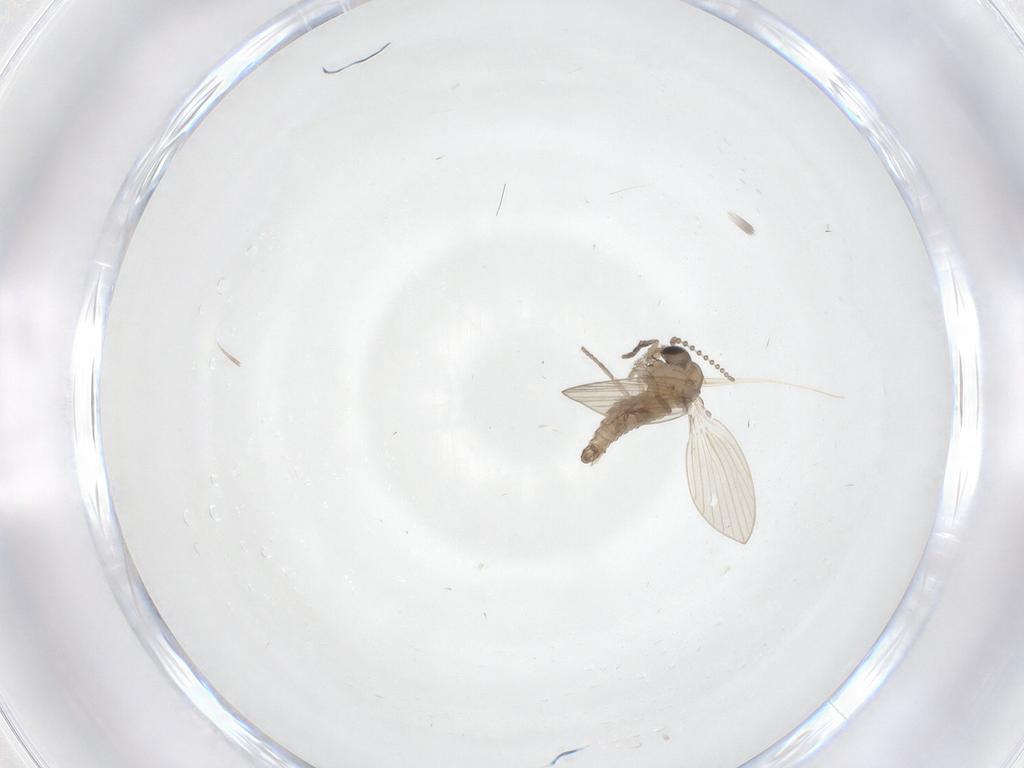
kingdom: Animalia
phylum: Arthropoda
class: Insecta
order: Diptera
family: Psychodidae
